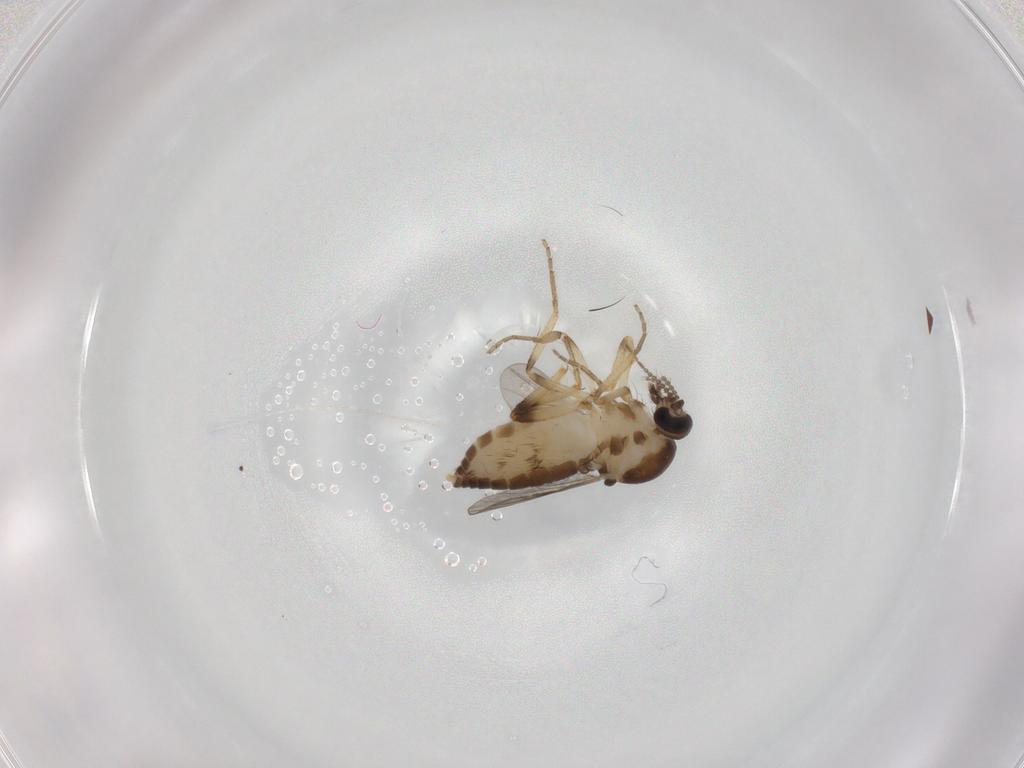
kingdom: Animalia
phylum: Arthropoda
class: Insecta
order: Diptera
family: Ceratopogonidae
